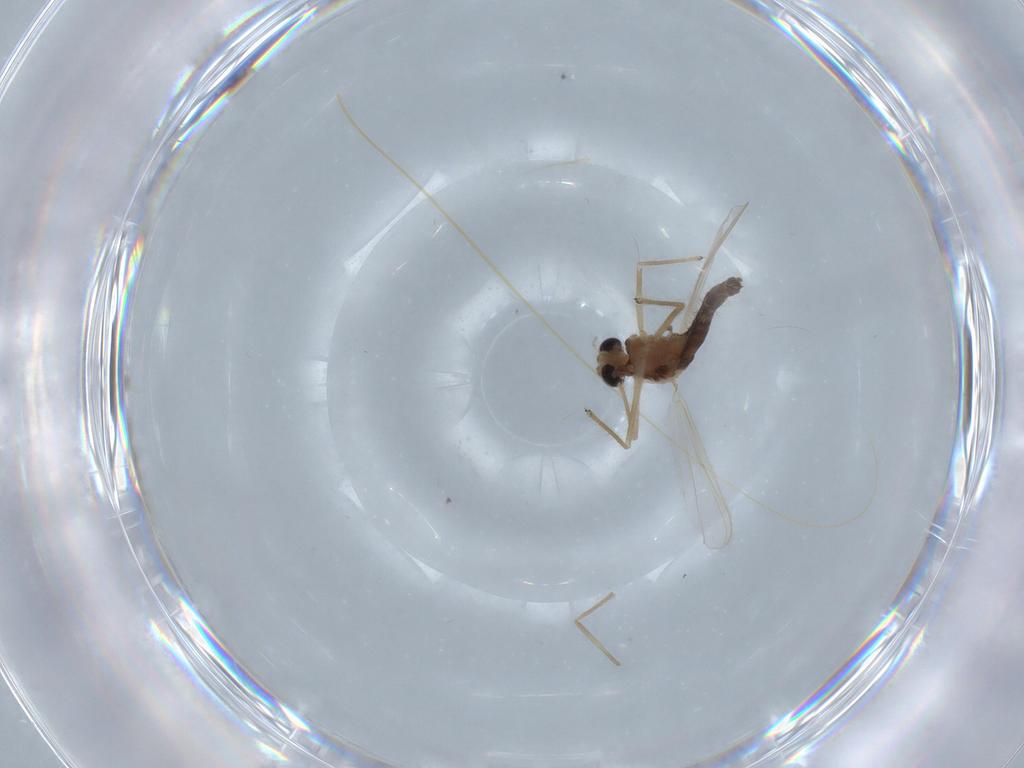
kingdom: Animalia
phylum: Arthropoda
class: Insecta
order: Diptera
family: Chironomidae
